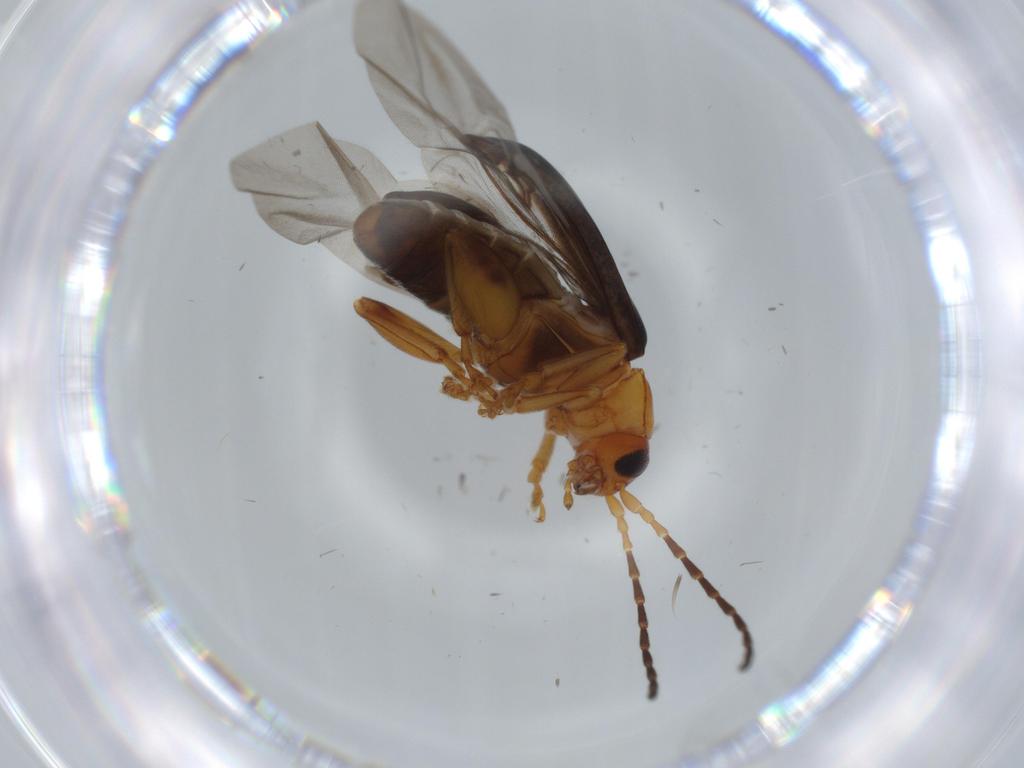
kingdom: Animalia
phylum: Arthropoda
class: Insecta
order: Coleoptera
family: Chrysomelidae
